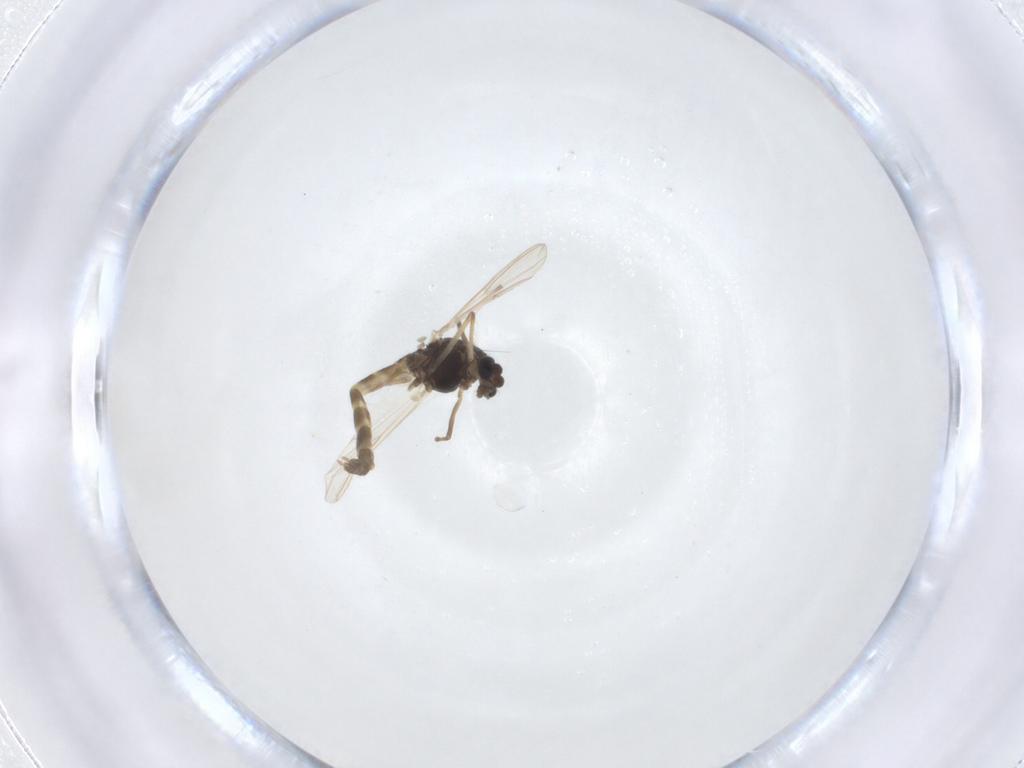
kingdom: Animalia
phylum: Arthropoda
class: Insecta
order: Diptera
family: Chironomidae
